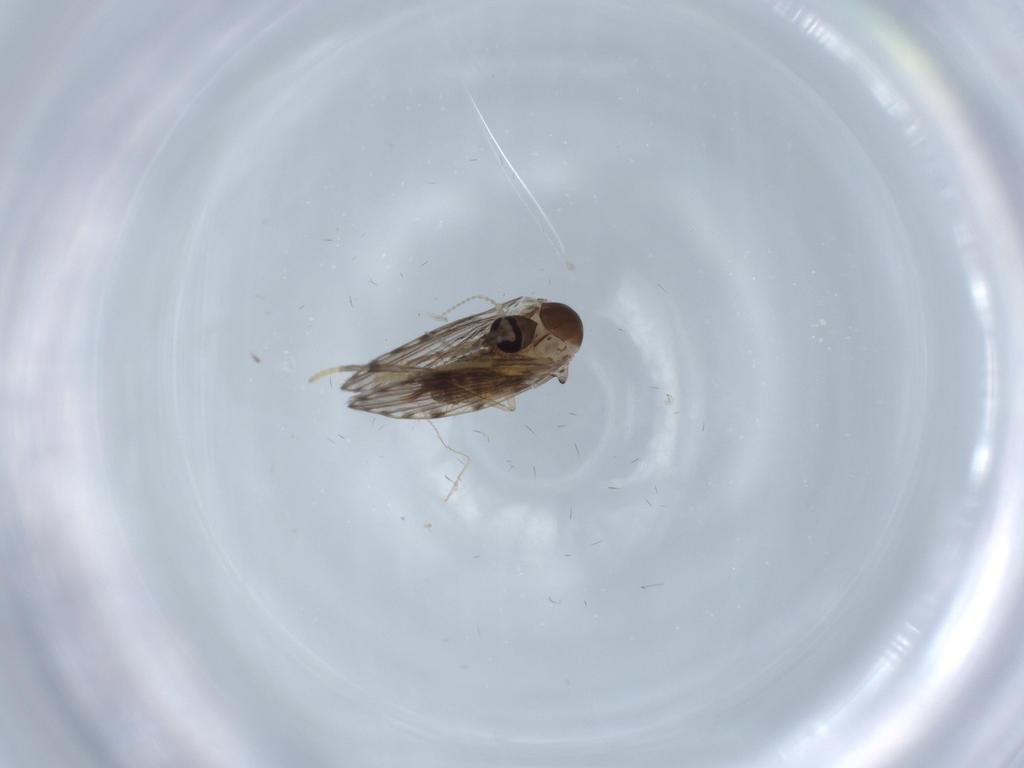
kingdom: Animalia
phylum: Arthropoda
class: Insecta
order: Diptera
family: Psychodidae
